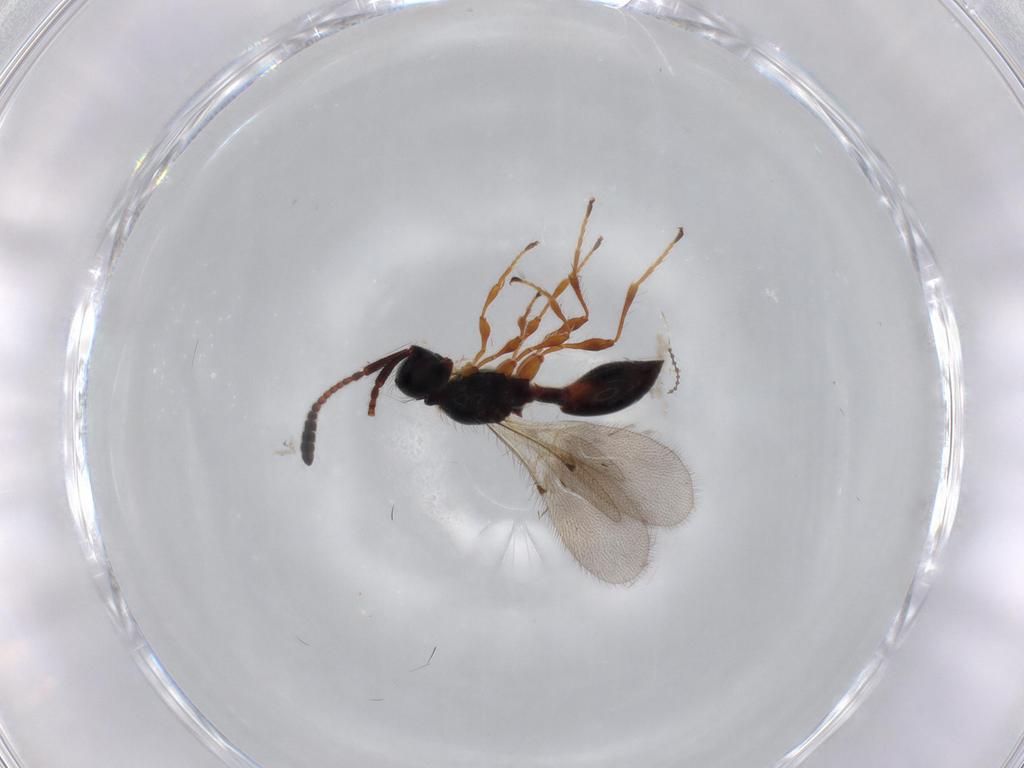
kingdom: Animalia
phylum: Arthropoda
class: Insecta
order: Hymenoptera
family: Diapriidae
